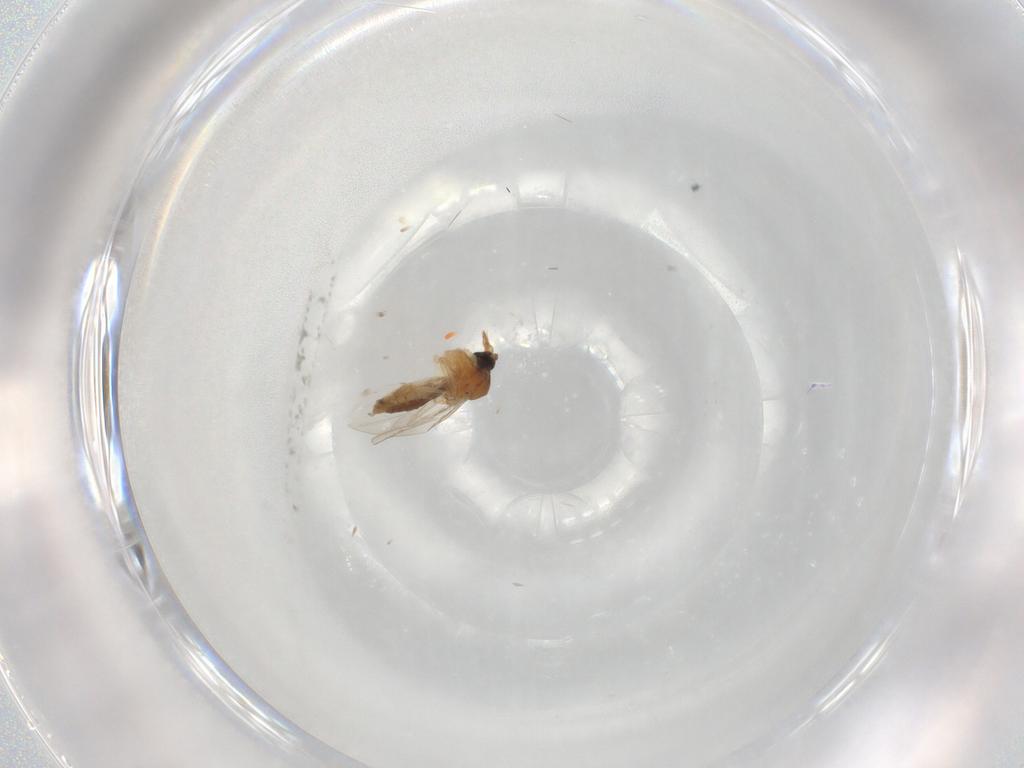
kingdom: Animalia
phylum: Arthropoda
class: Insecta
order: Diptera
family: Ceratopogonidae
